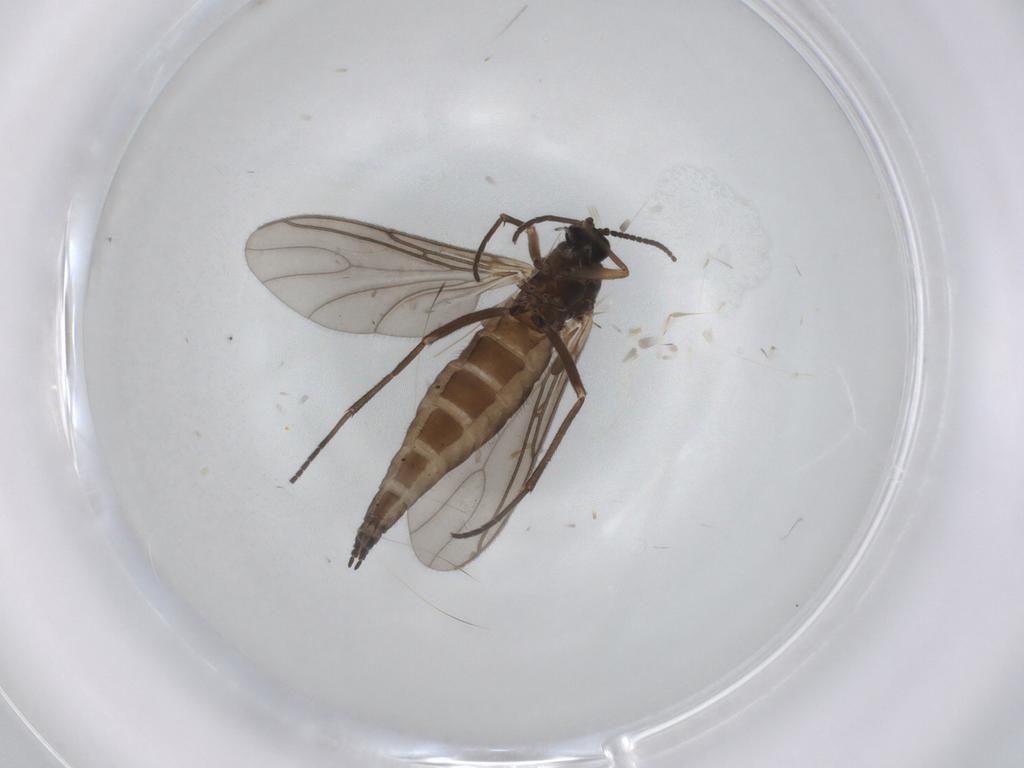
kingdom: Animalia
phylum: Arthropoda
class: Insecta
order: Diptera
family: Sciaridae
